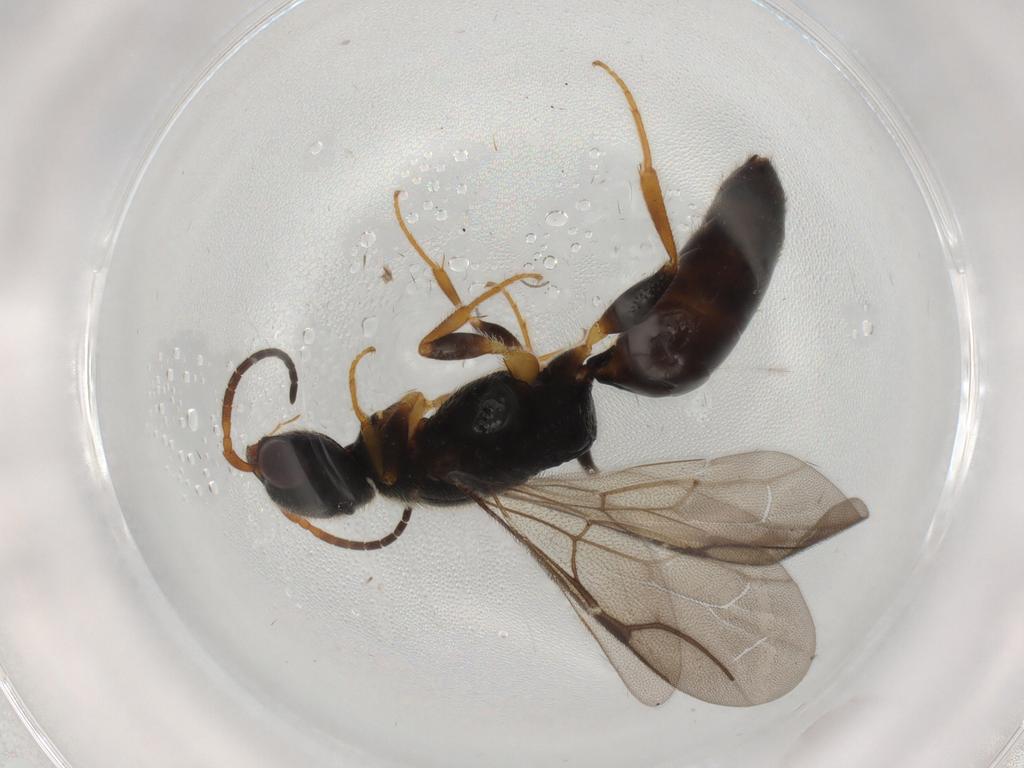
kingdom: Animalia
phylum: Arthropoda
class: Insecta
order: Hymenoptera
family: Bethylidae
